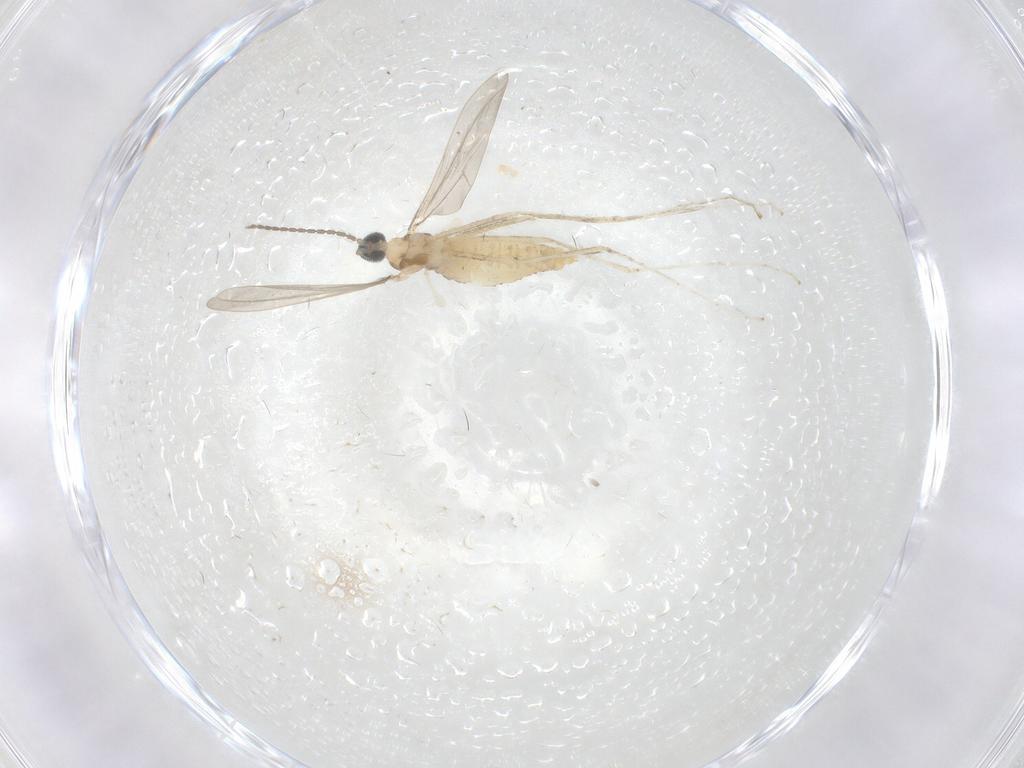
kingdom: Animalia
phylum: Arthropoda
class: Insecta
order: Diptera
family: Cecidomyiidae
